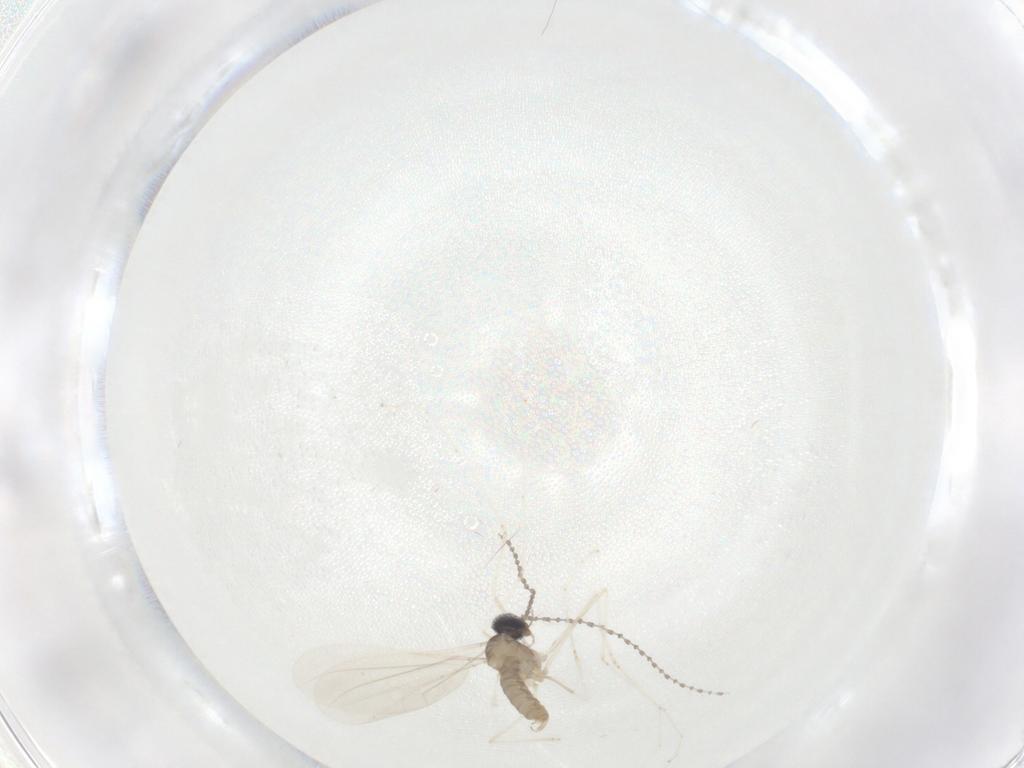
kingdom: Animalia
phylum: Arthropoda
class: Insecta
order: Diptera
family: Cecidomyiidae
